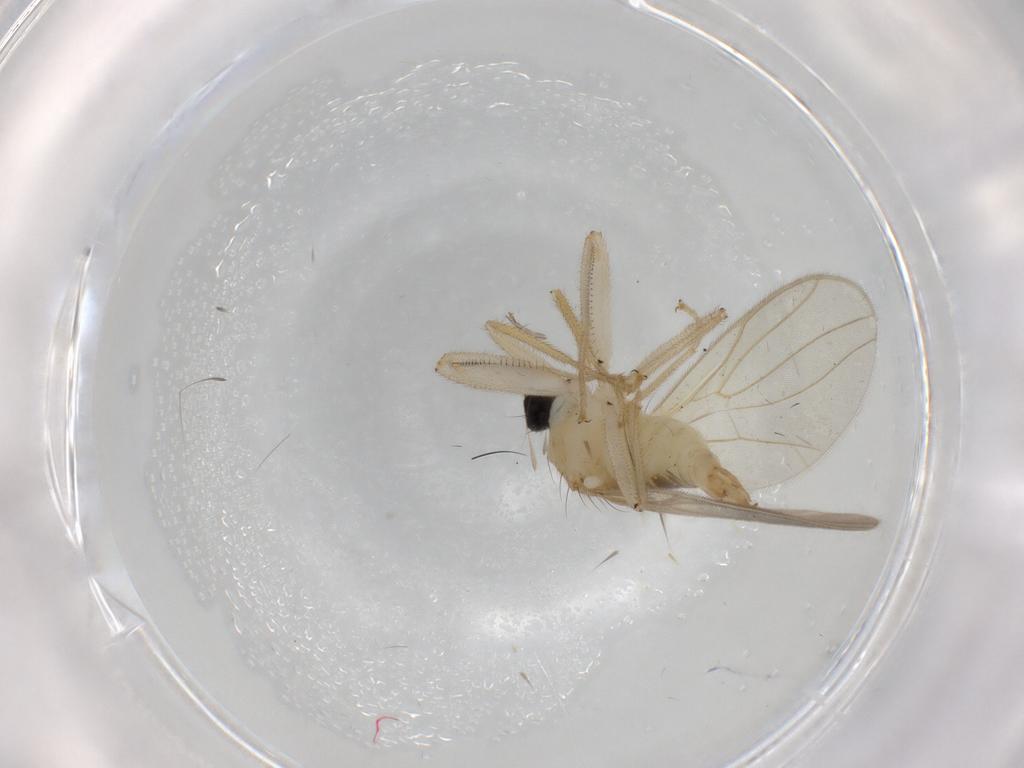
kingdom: Animalia
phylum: Arthropoda
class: Insecta
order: Diptera
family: Hybotidae
